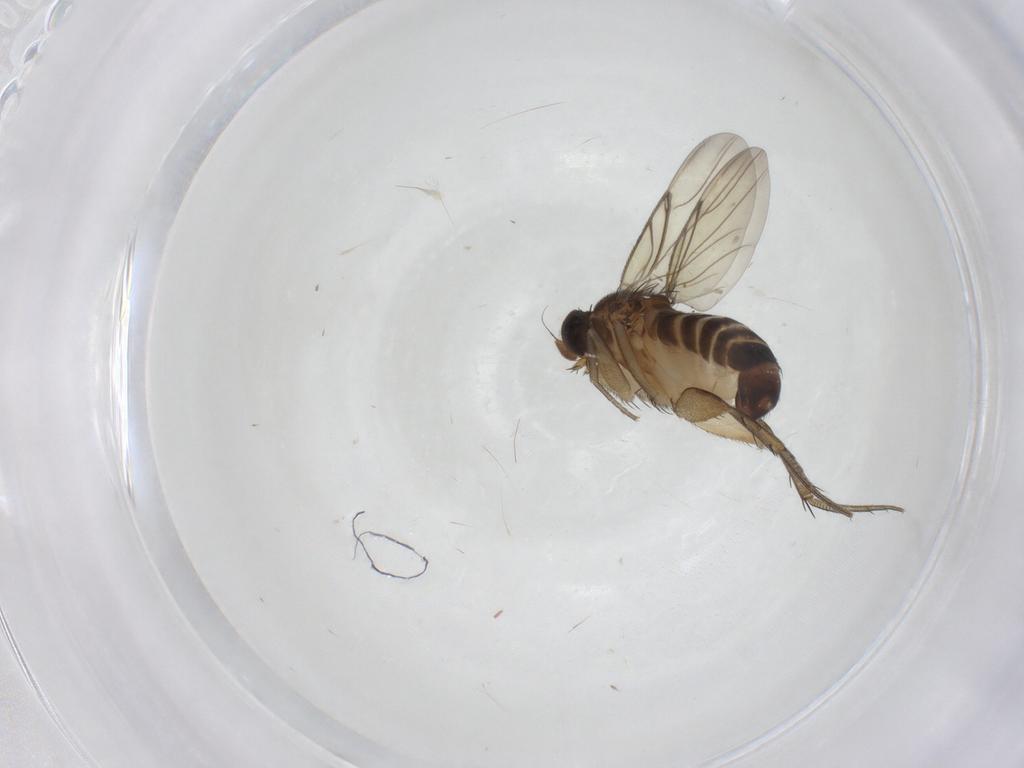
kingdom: Animalia
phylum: Arthropoda
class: Insecta
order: Diptera
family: Phoridae
